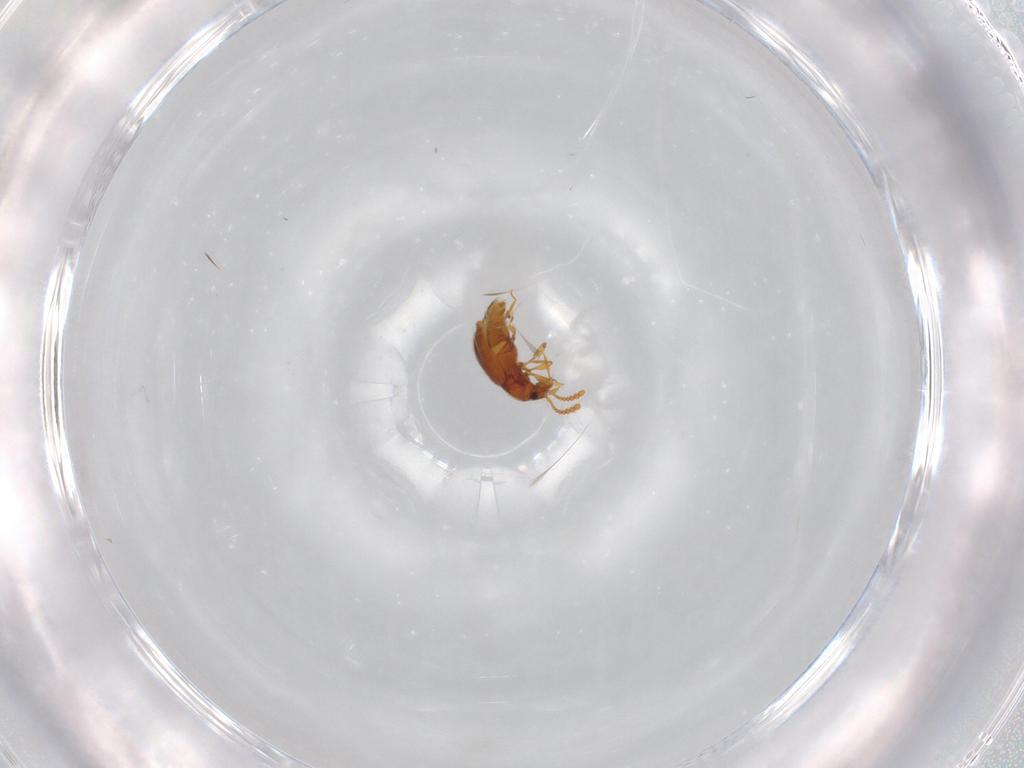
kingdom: Animalia
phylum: Arthropoda
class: Insecta
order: Coleoptera
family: Staphylinidae
